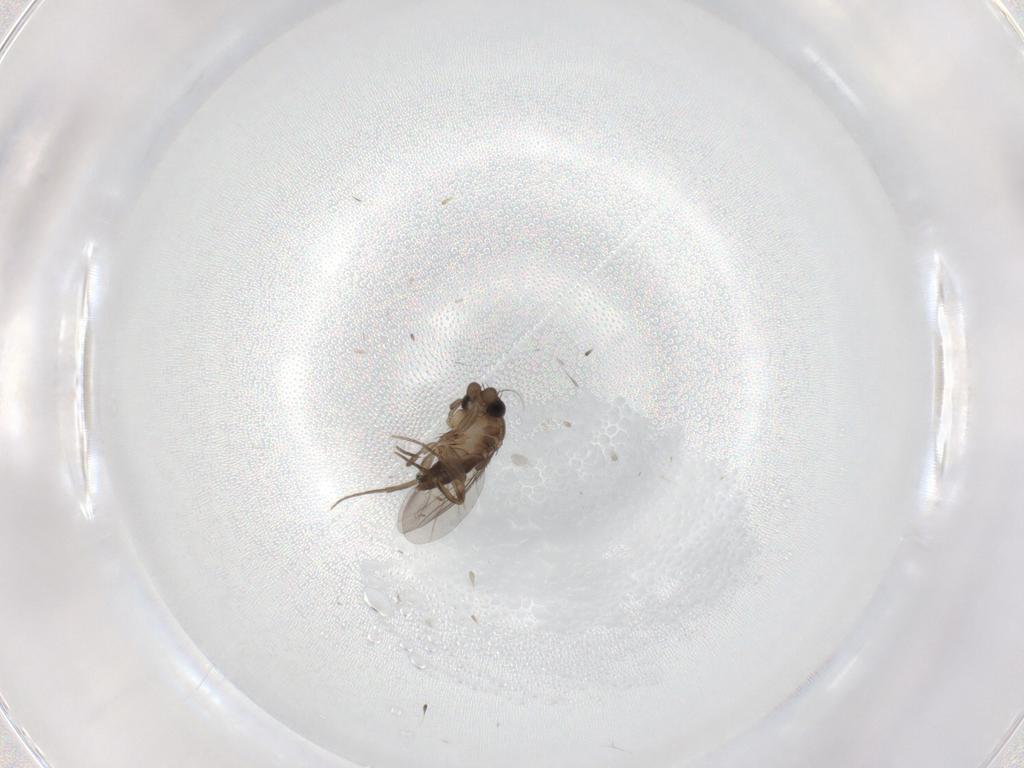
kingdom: Animalia
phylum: Arthropoda
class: Insecta
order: Diptera
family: Phoridae
